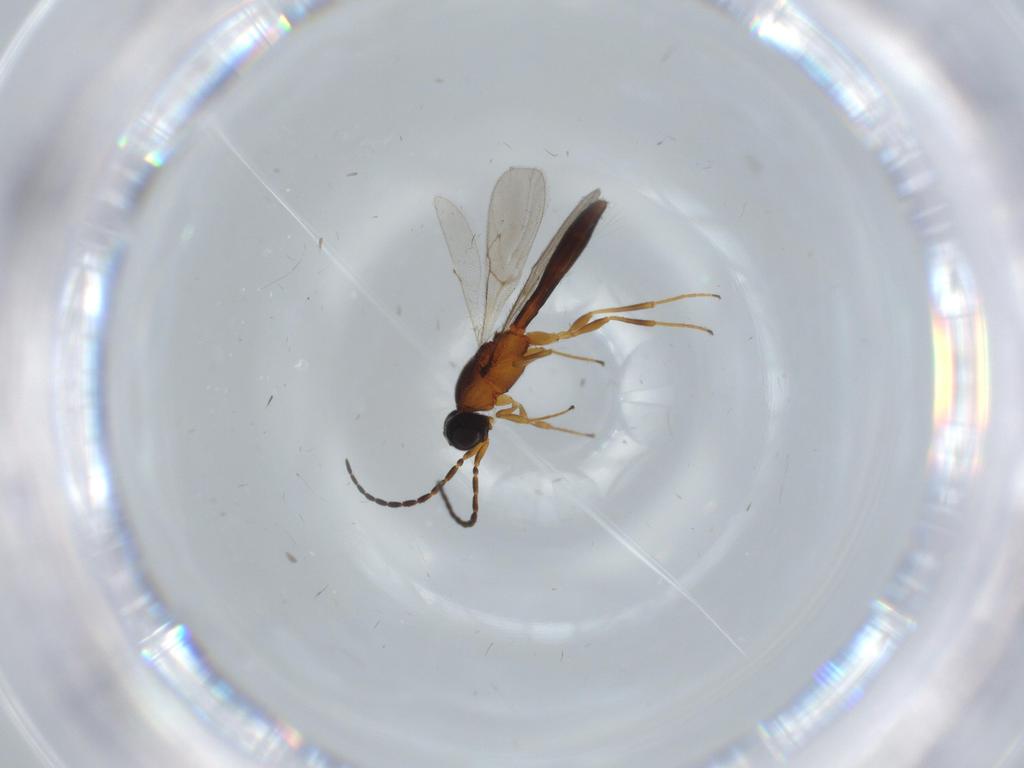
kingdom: Animalia
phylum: Arthropoda
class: Insecta
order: Hymenoptera
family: Scelionidae
